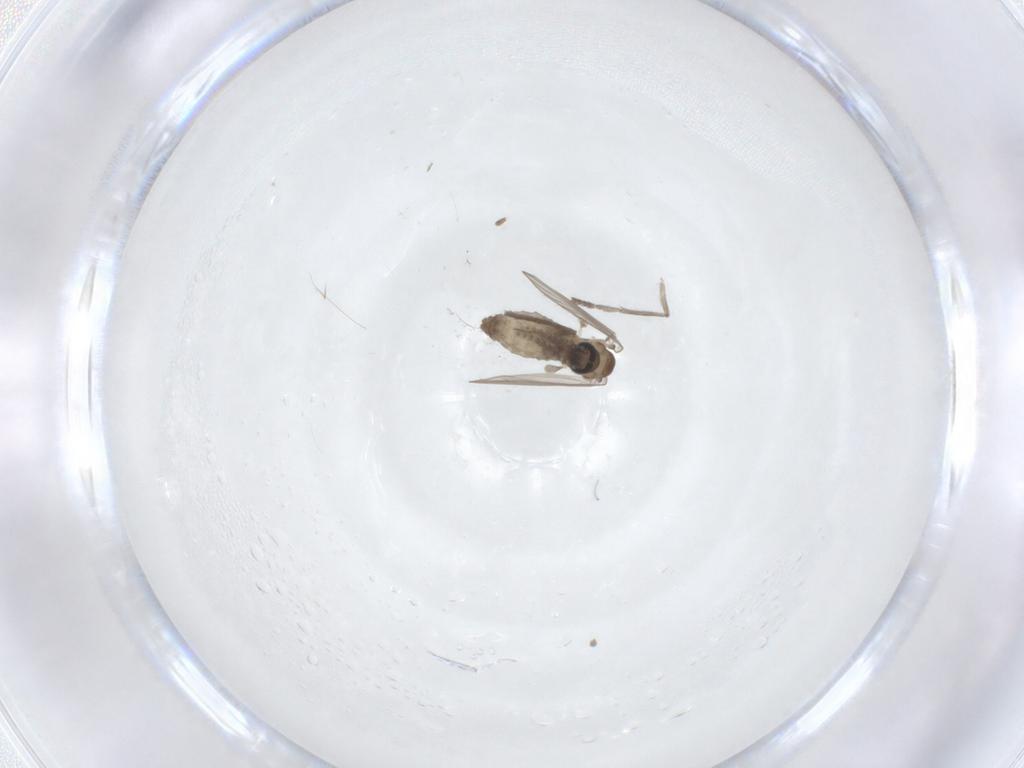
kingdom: Animalia
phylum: Arthropoda
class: Insecta
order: Diptera
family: Psychodidae
